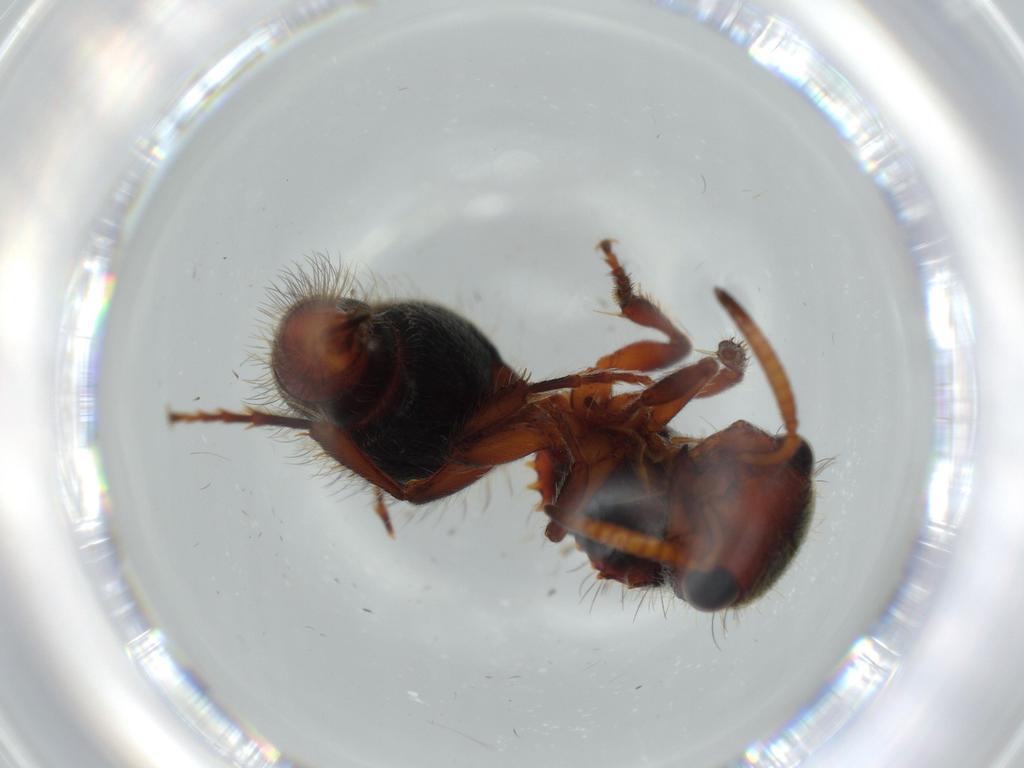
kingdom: Animalia
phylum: Arthropoda
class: Insecta
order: Hymenoptera
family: Formicidae
